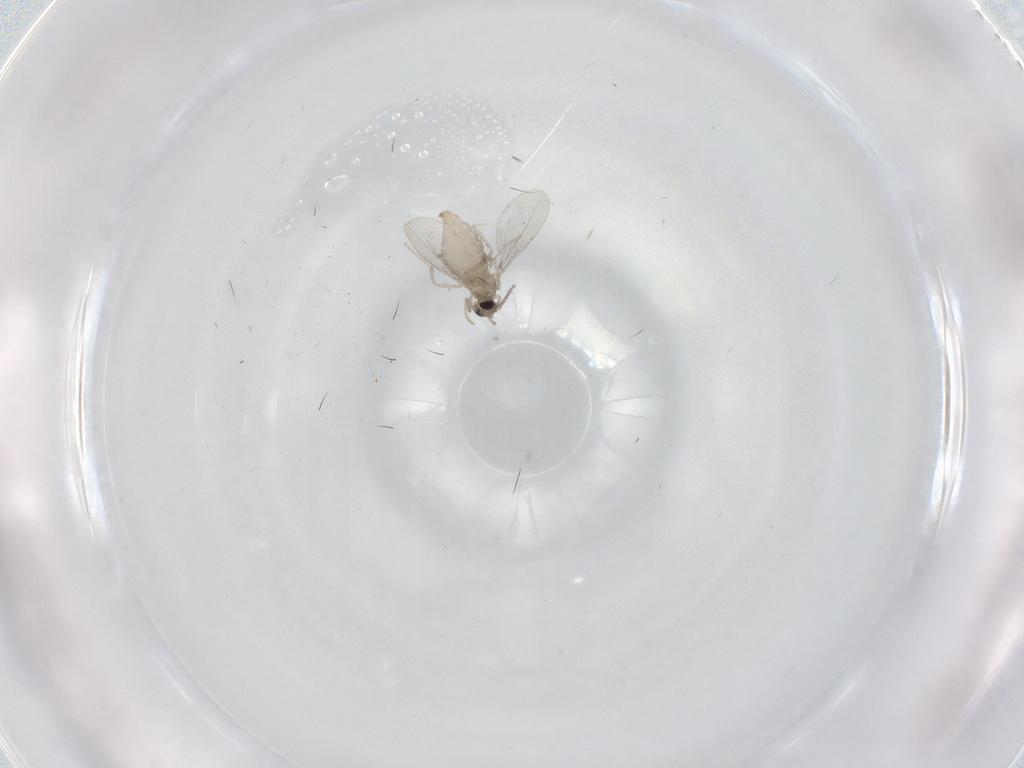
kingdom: Animalia
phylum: Arthropoda
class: Insecta
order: Diptera
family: Cecidomyiidae
